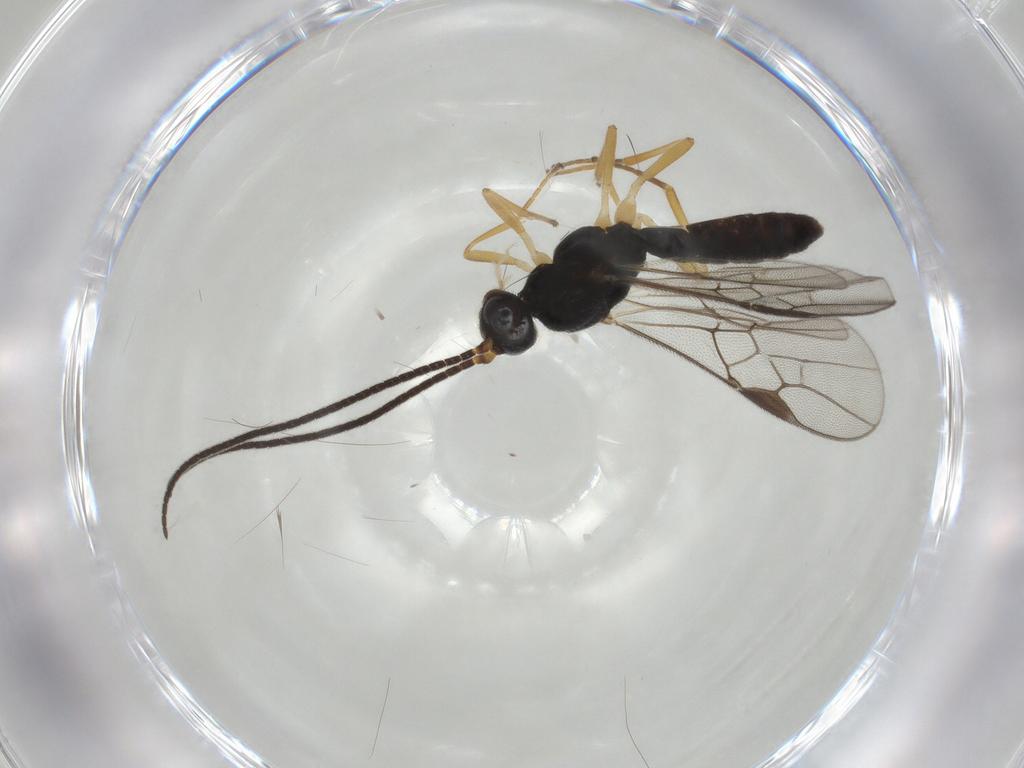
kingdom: Animalia
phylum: Arthropoda
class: Insecta
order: Hymenoptera
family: Braconidae
